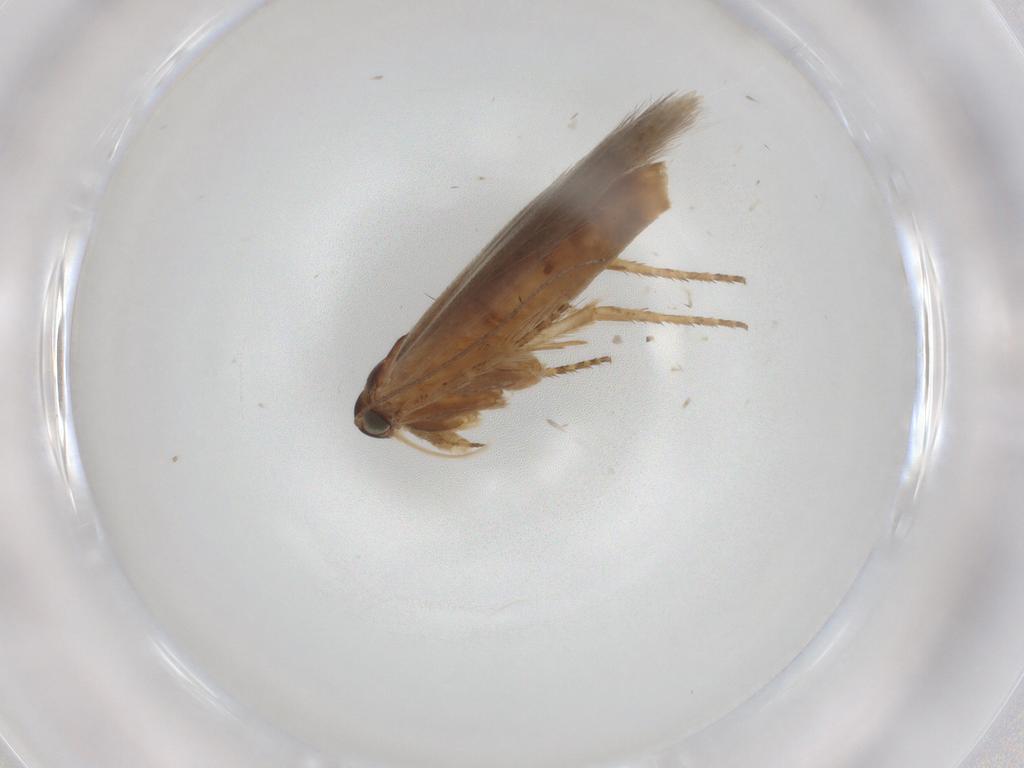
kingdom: Animalia
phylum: Arthropoda
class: Insecta
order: Lepidoptera
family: Gelechiidae
